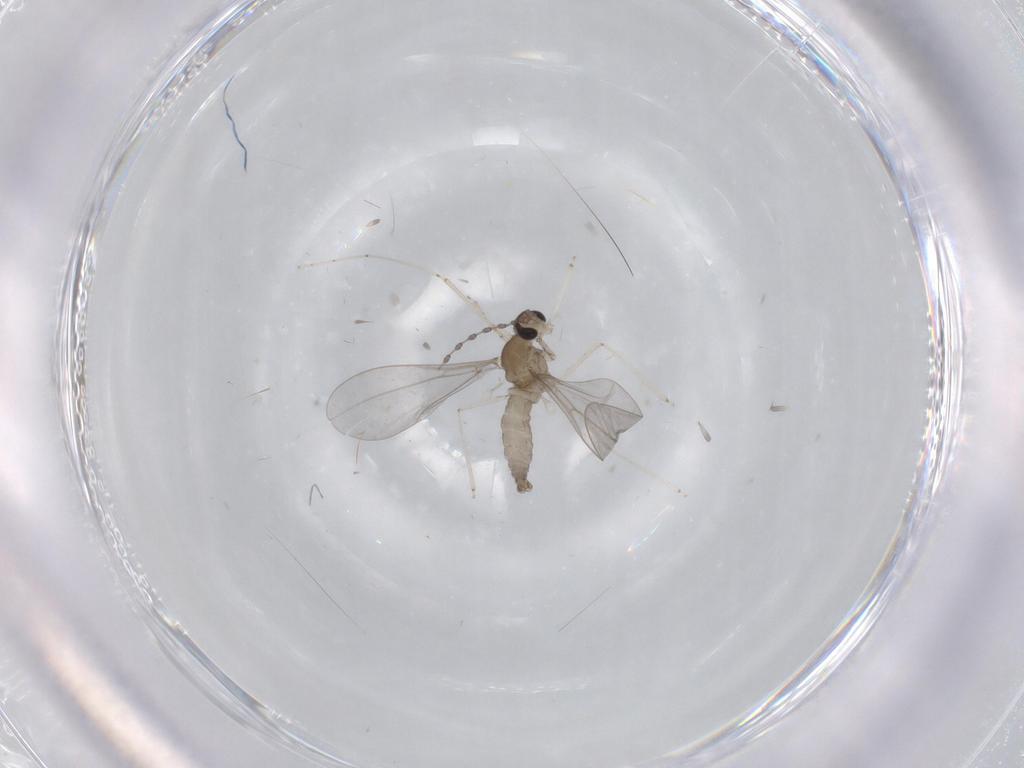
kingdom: Animalia
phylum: Arthropoda
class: Insecta
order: Diptera
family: Cecidomyiidae
